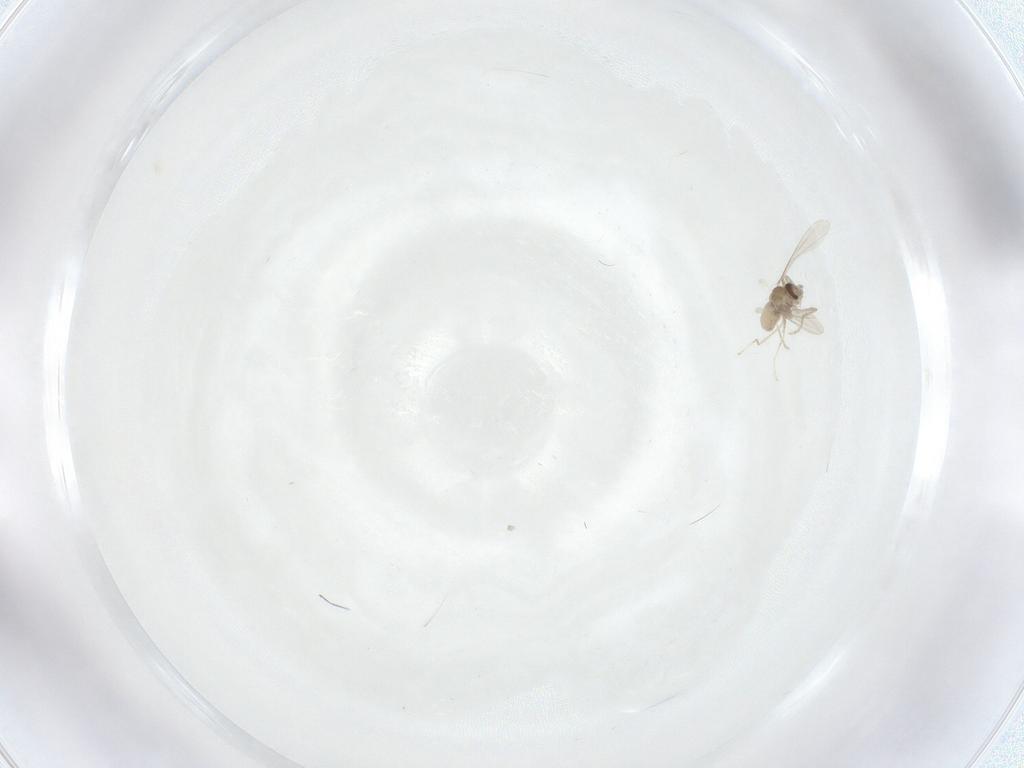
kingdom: Animalia
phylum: Arthropoda
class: Insecta
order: Diptera
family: Cecidomyiidae
